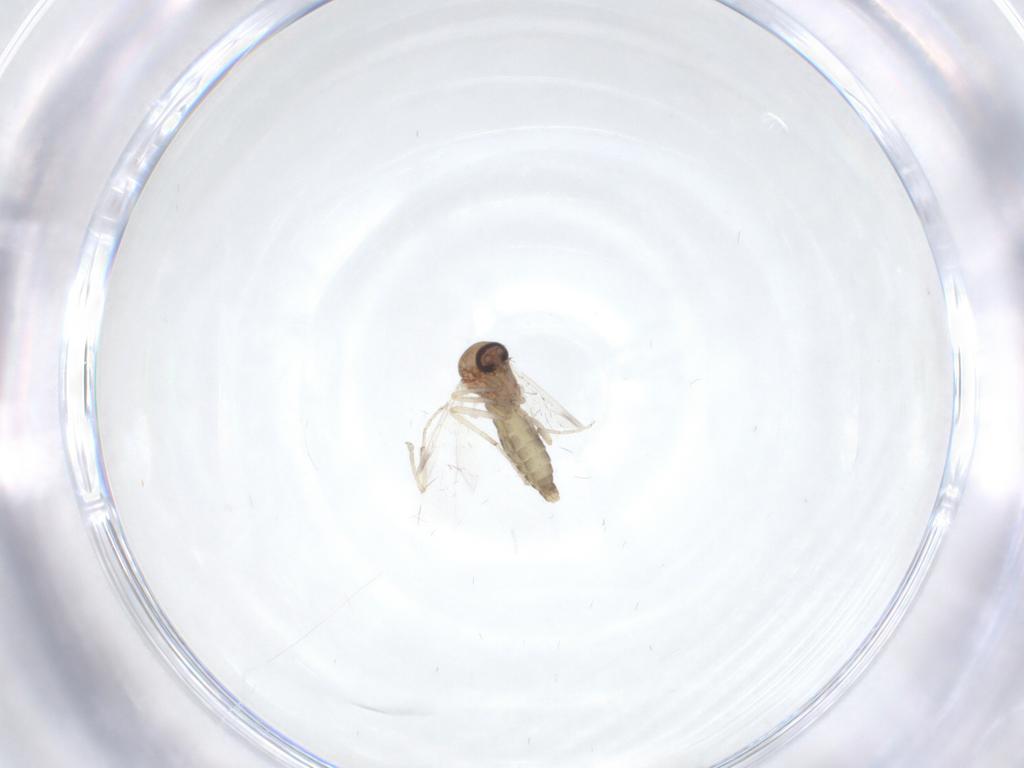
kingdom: Animalia
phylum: Arthropoda
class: Insecta
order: Diptera
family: Ceratopogonidae
